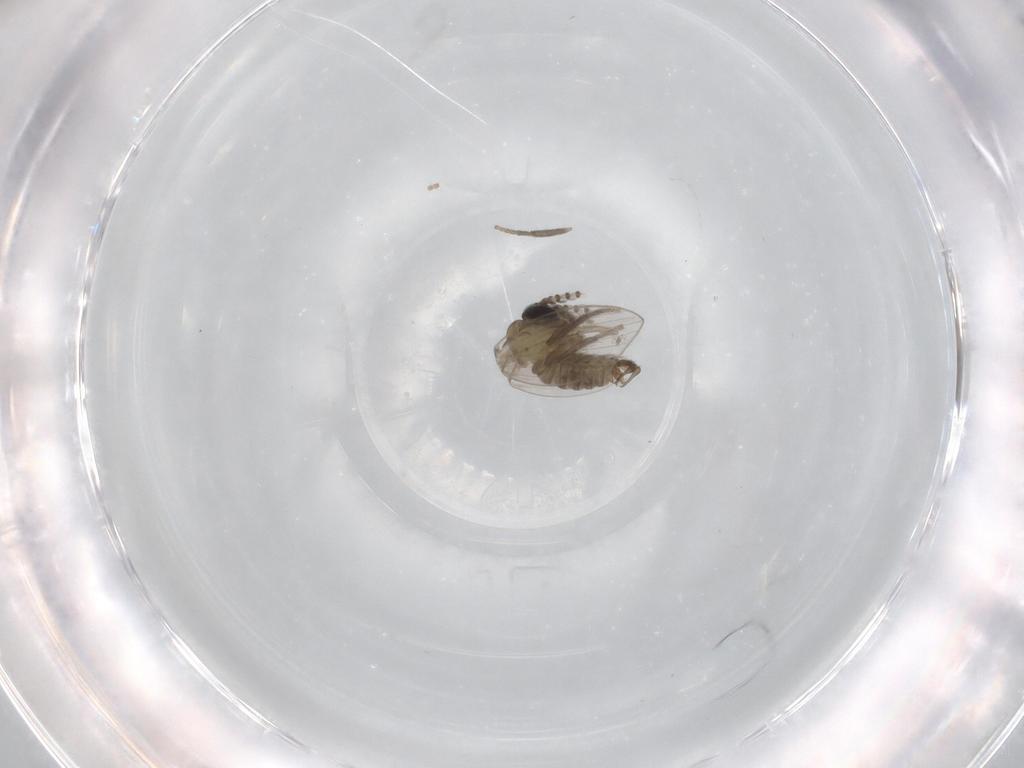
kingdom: Animalia
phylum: Arthropoda
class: Insecta
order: Diptera
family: Psychodidae
